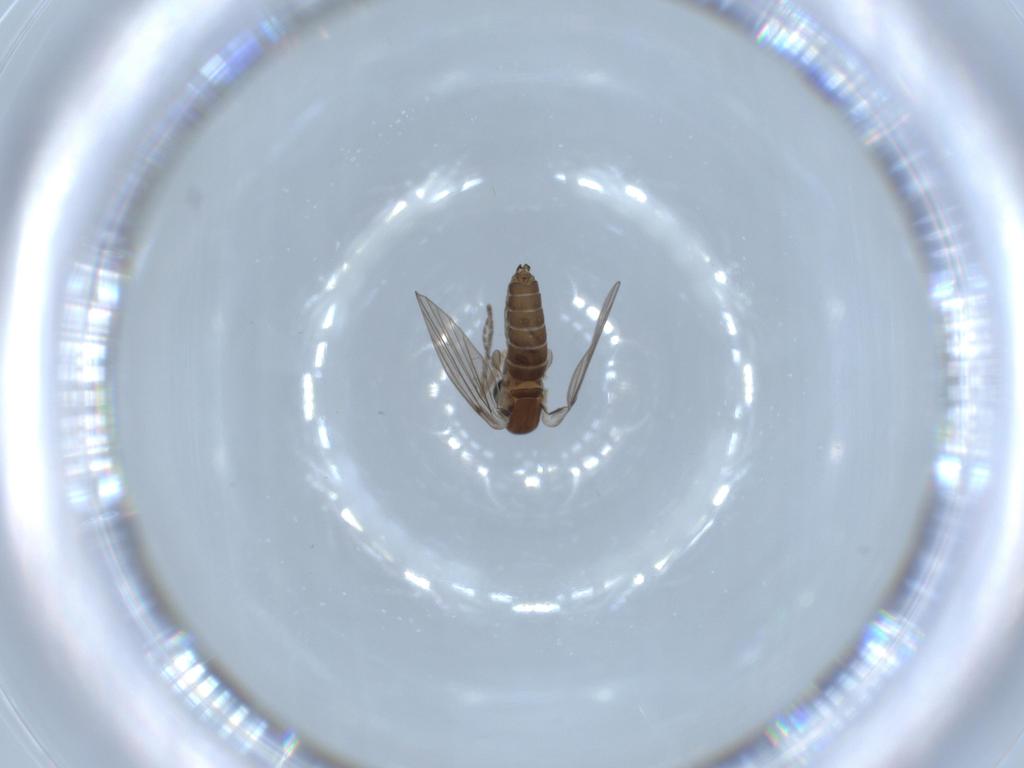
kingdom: Animalia
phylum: Arthropoda
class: Insecta
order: Diptera
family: Psychodidae
